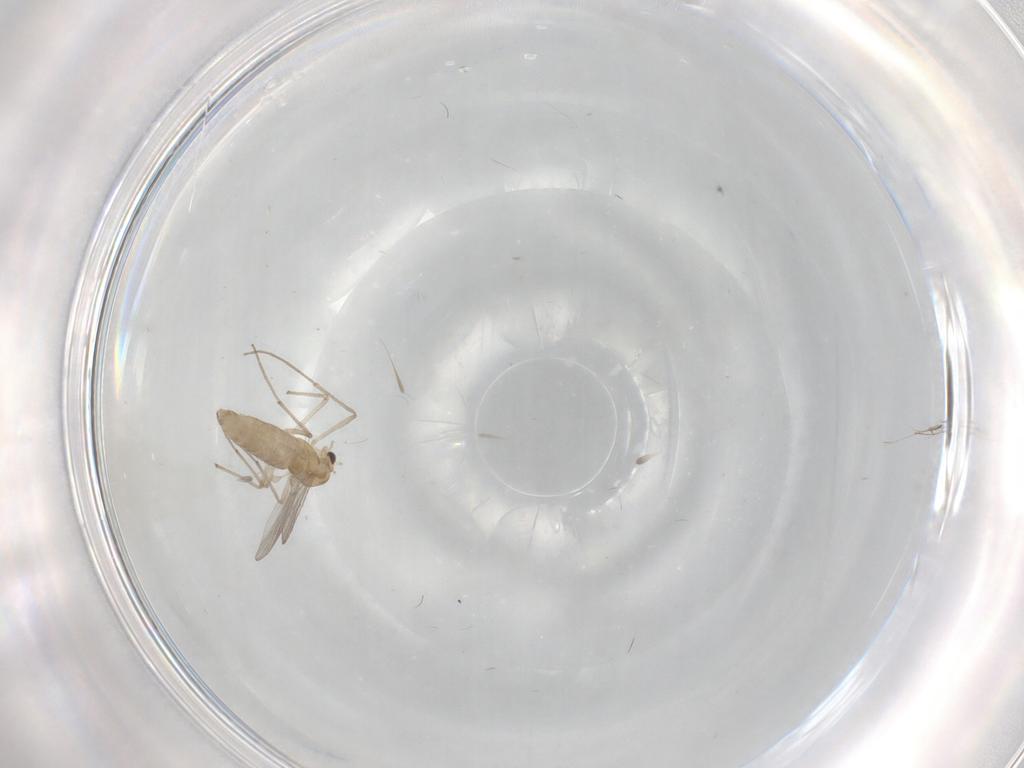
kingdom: Animalia
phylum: Arthropoda
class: Insecta
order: Diptera
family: Chironomidae
